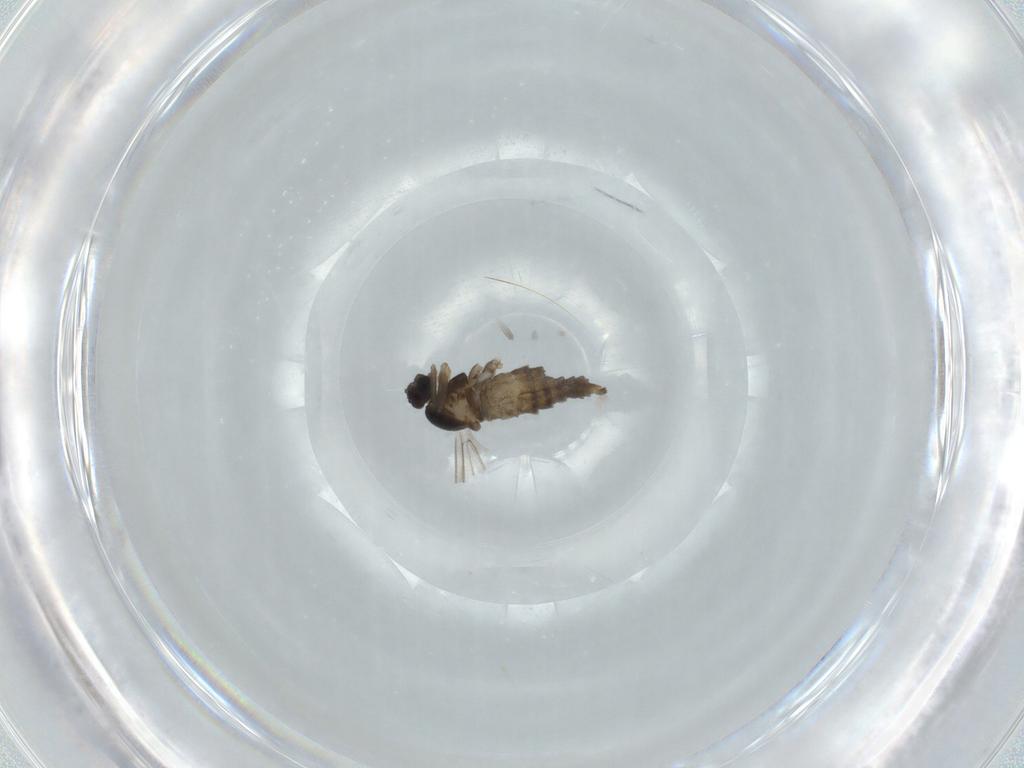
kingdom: Animalia
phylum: Arthropoda
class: Insecta
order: Diptera
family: Cecidomyiidae
